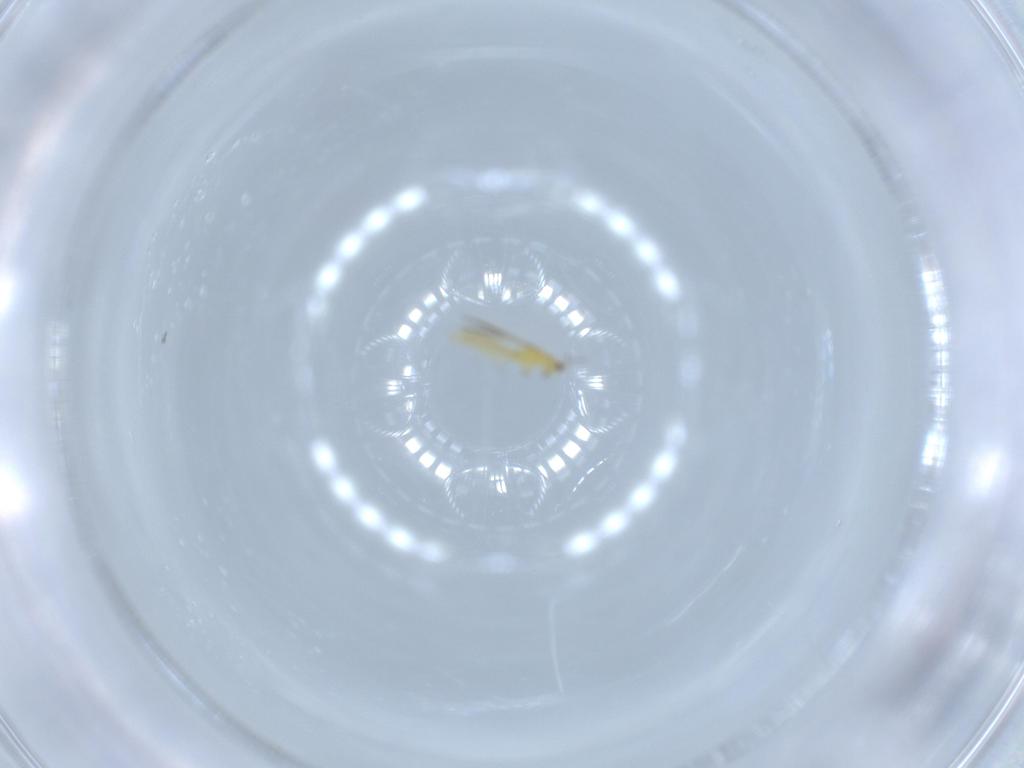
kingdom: Animalia
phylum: Arthropoda
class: Insecta
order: Thysanoptera
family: Thripidae
